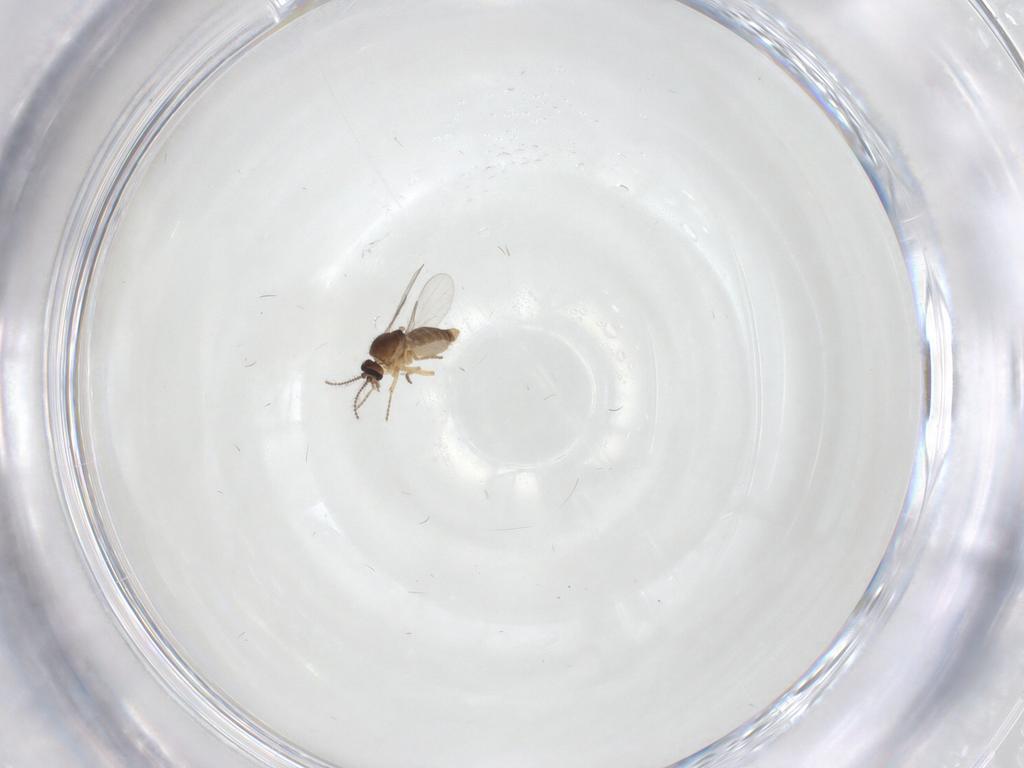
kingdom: Animalia
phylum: Arthropoda
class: Insecta
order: Diptera
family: Ceratopogonidae
